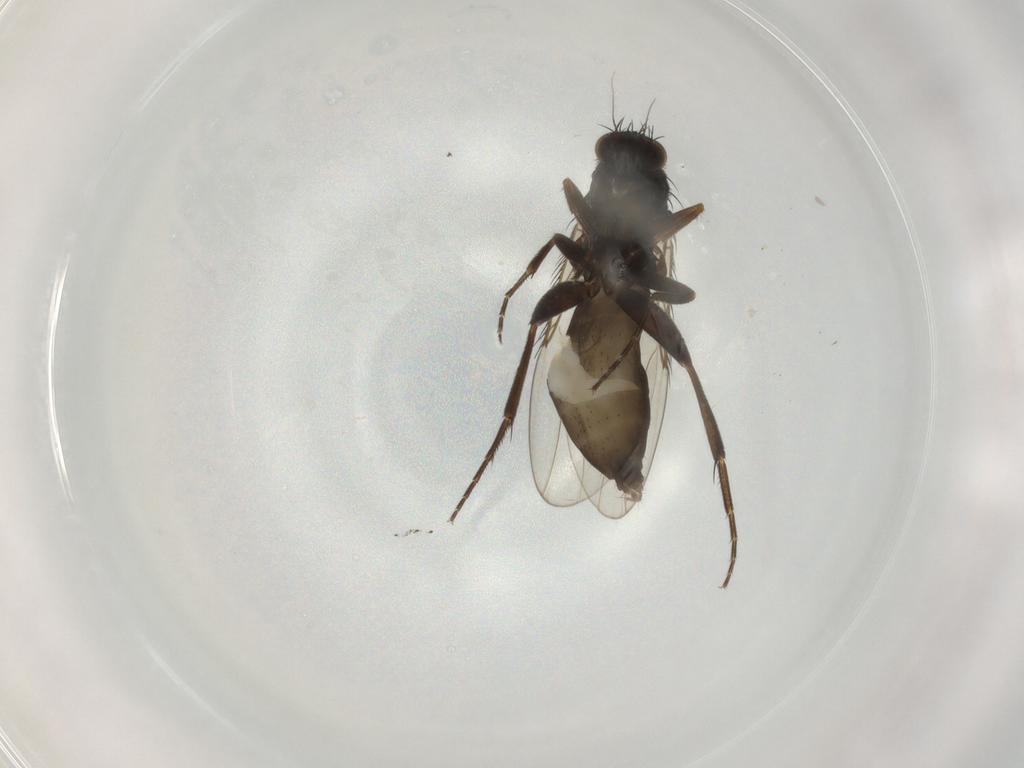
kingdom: Animalia
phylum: Arthropoda
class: Insecta
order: Diptera
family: Phoridae
